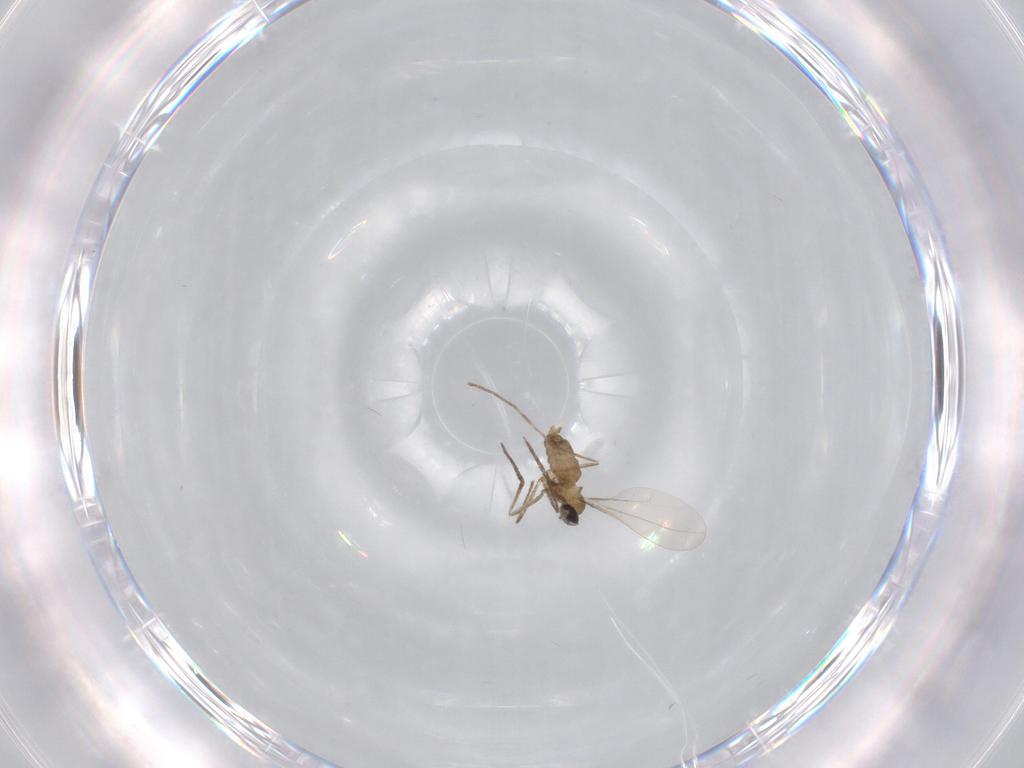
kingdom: Animalia
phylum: Arthropoda
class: Insecta
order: Diptera
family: Cecidomyiidae
